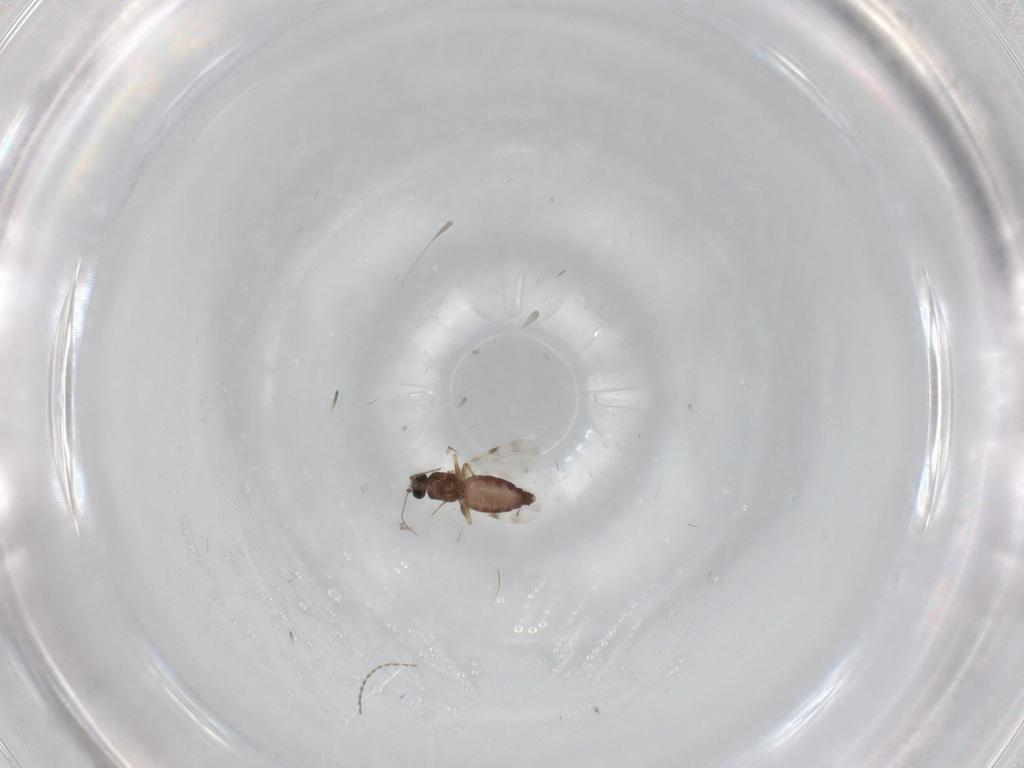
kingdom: Animalia
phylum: Arthropoda
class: Insecta
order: Diptera
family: Ceratopogonidae
